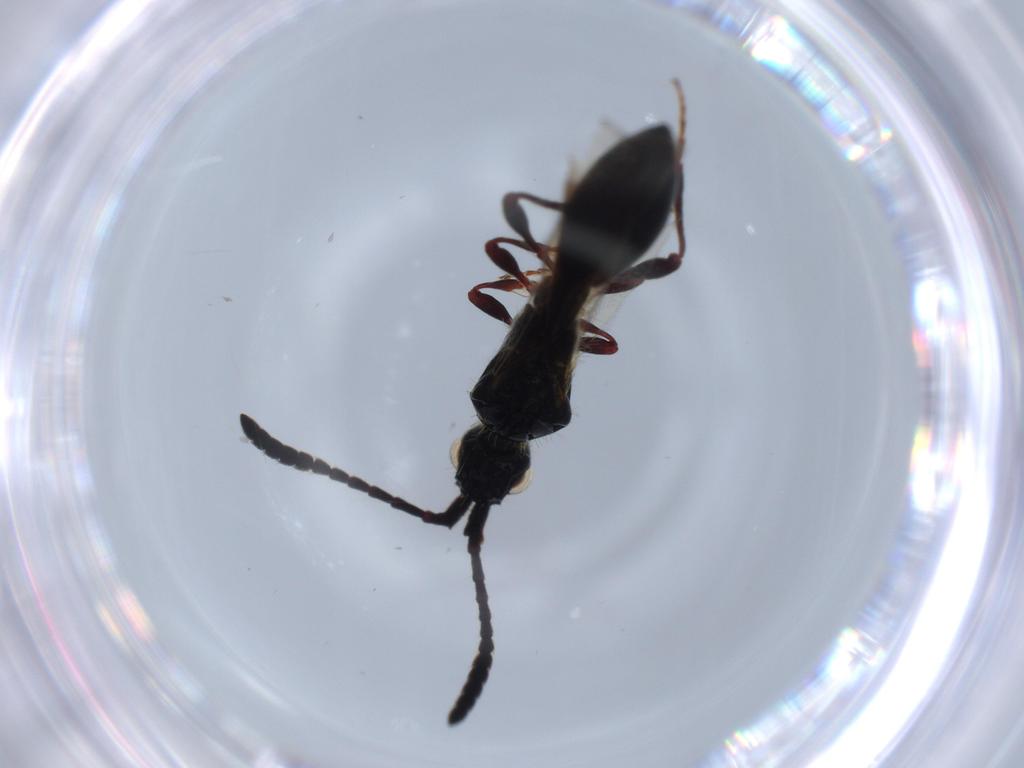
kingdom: Animalia
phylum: Arthropoda
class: Insecta
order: Hymenoptera
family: Diapriidae
